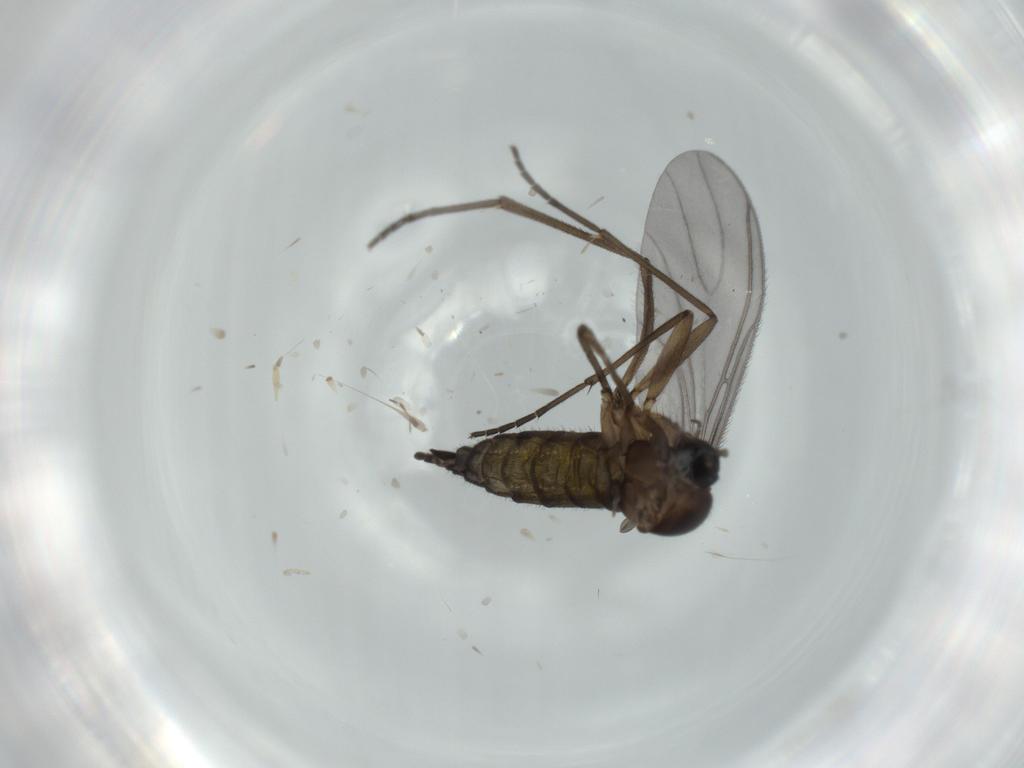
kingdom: Animalia
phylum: Arthropoda
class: Insecta
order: Diptera
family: Sciaridae
